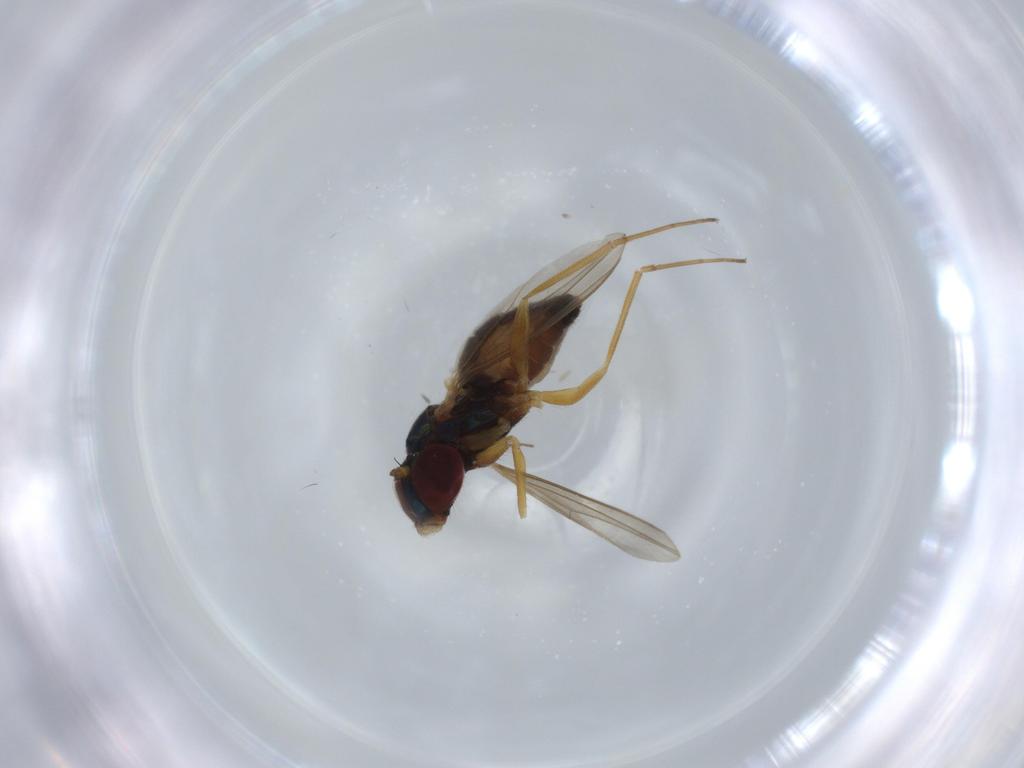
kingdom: Animalia
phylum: Arthropoda
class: Insecta
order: Diptera
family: Dolichopodidae
